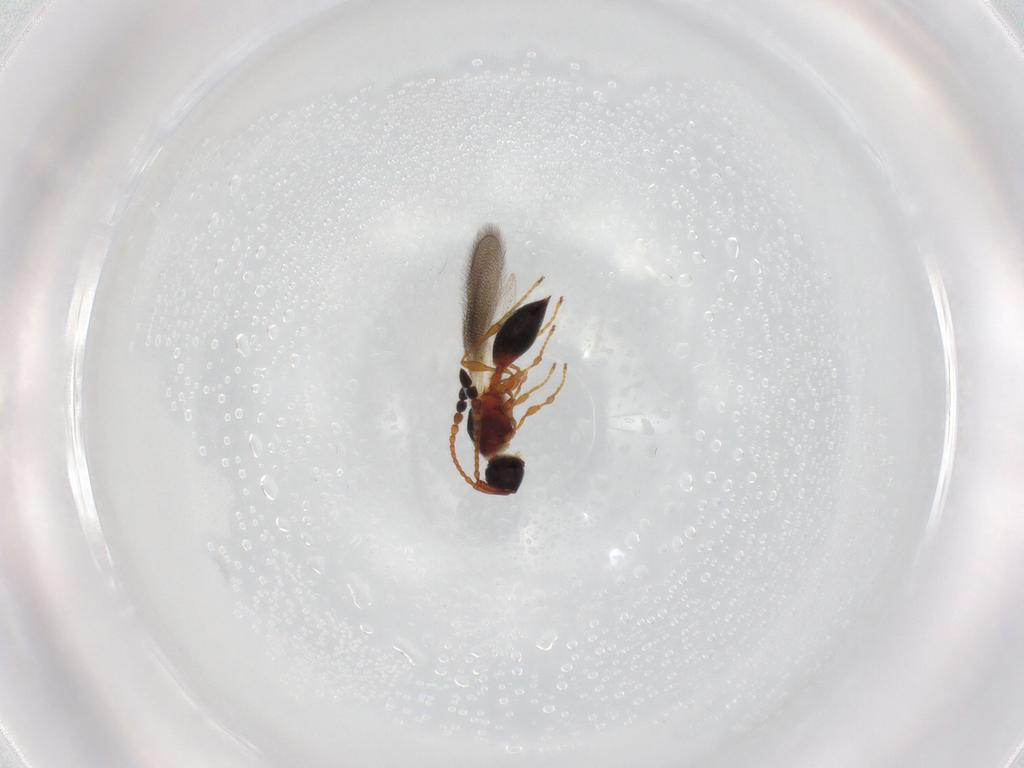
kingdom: Animalia
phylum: Arthropoda
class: Insecta
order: Hymenoptera
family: Diapriidae
